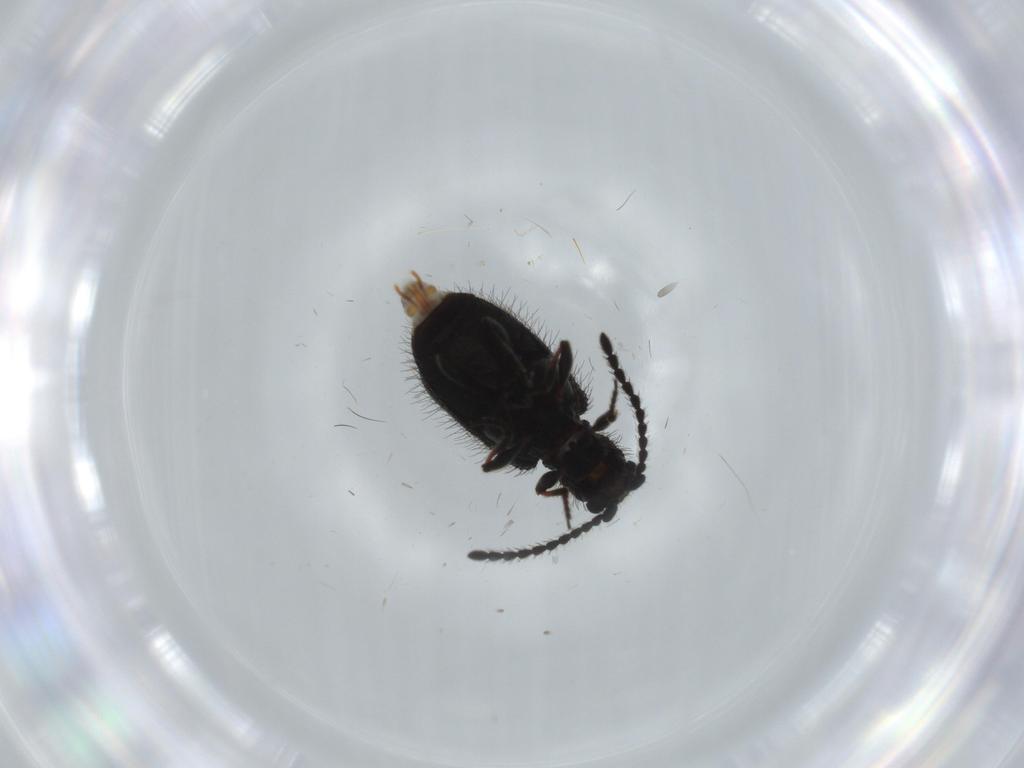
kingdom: Animalia
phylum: Arthropoda
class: Insecta
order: Coleoptera
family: Ptinidae
